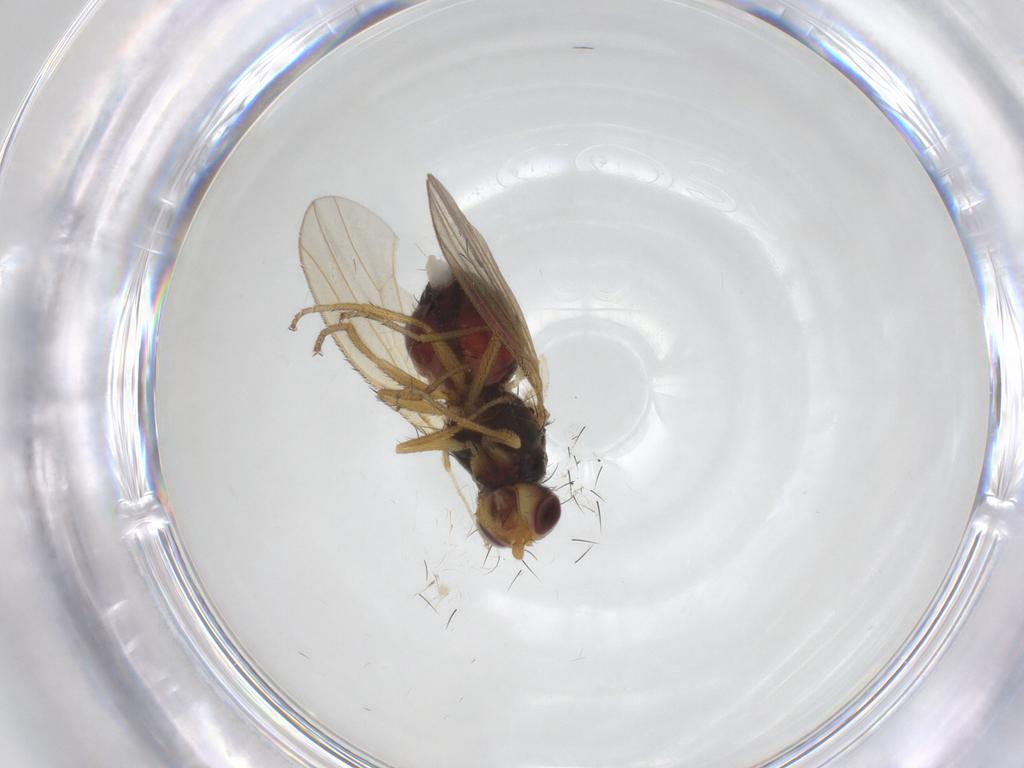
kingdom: Animalia
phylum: Arthropoda
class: Insecta
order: Diptera
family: Heleomyzidae
